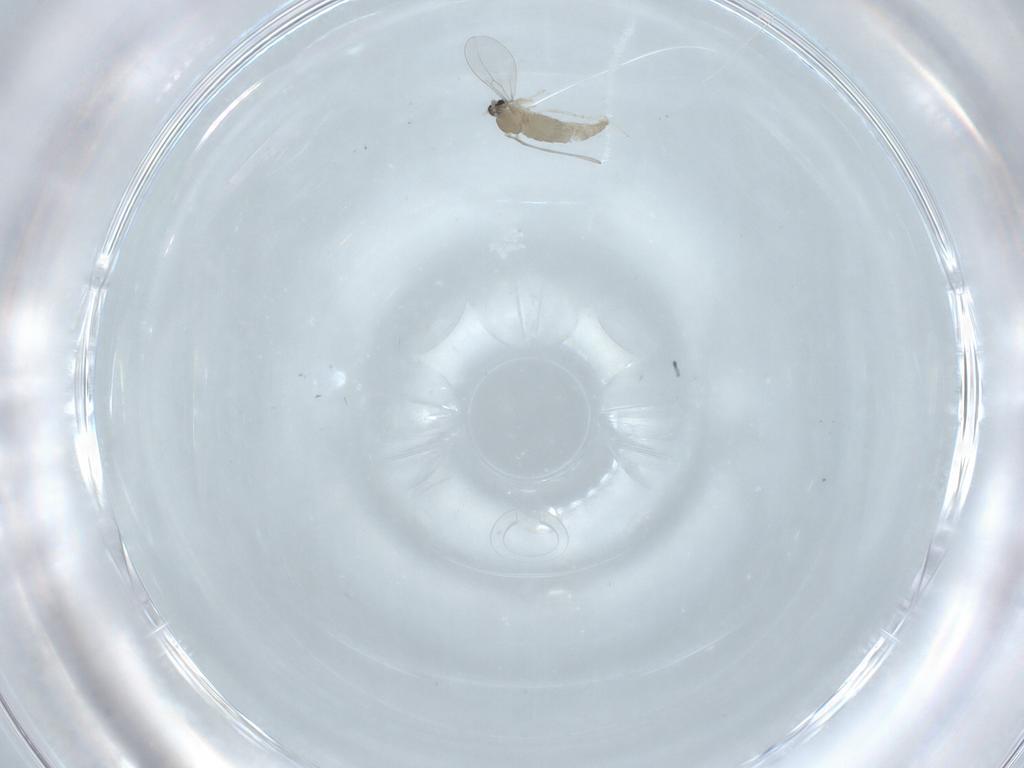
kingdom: Animalia
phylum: Arthropoda
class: Insecta
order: Diptera
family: Cecidomyiidae
